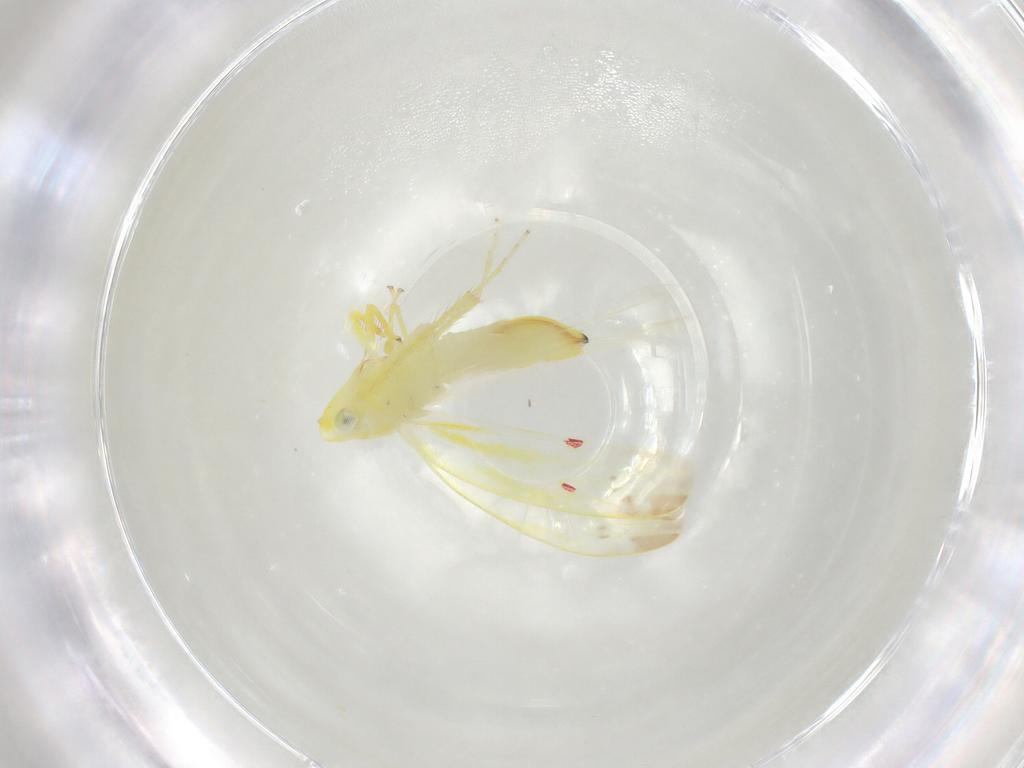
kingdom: Animalia
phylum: Arthropoda
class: Insecta
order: Hemiptera
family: Cicadellidae
